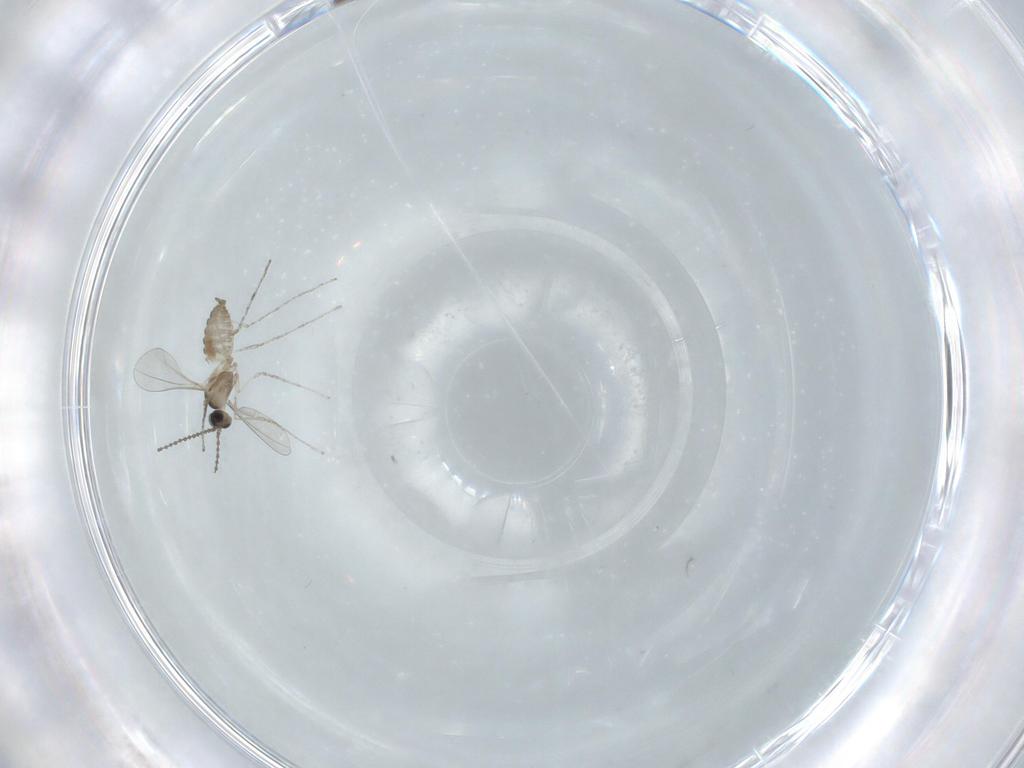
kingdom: Animalia
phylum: Arthropoda
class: Insecta
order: Diptera
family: Cecidomyiidae
